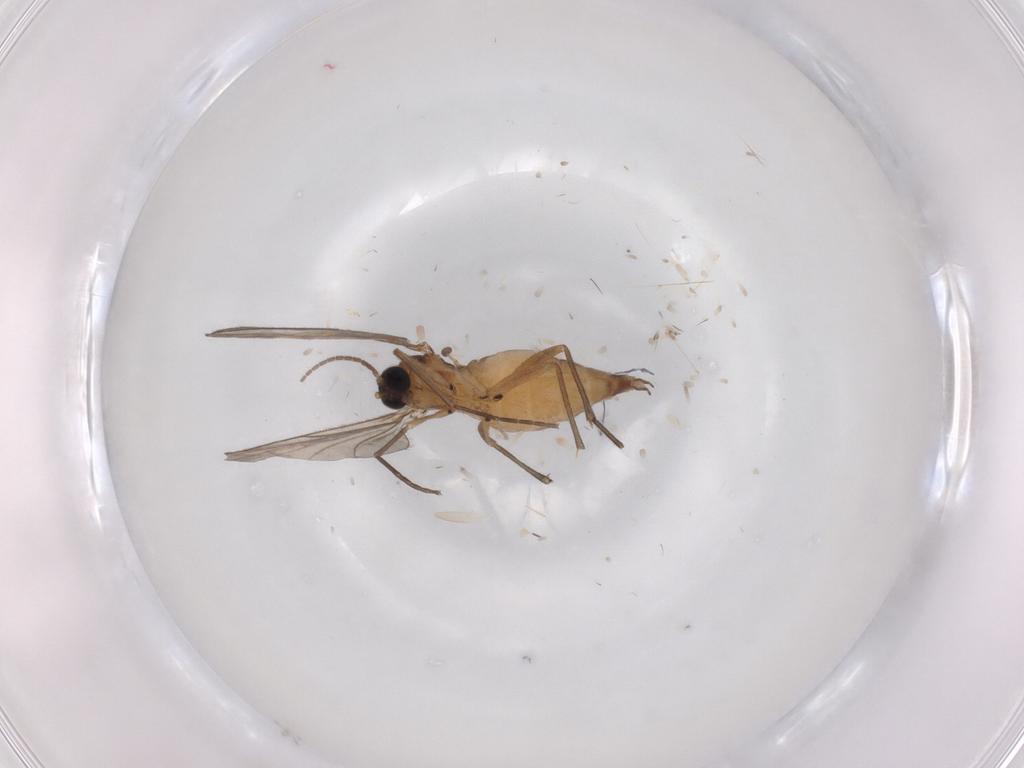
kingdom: Animalia
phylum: Arthropoda
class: Insecta
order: Diptera
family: Sciaridae
